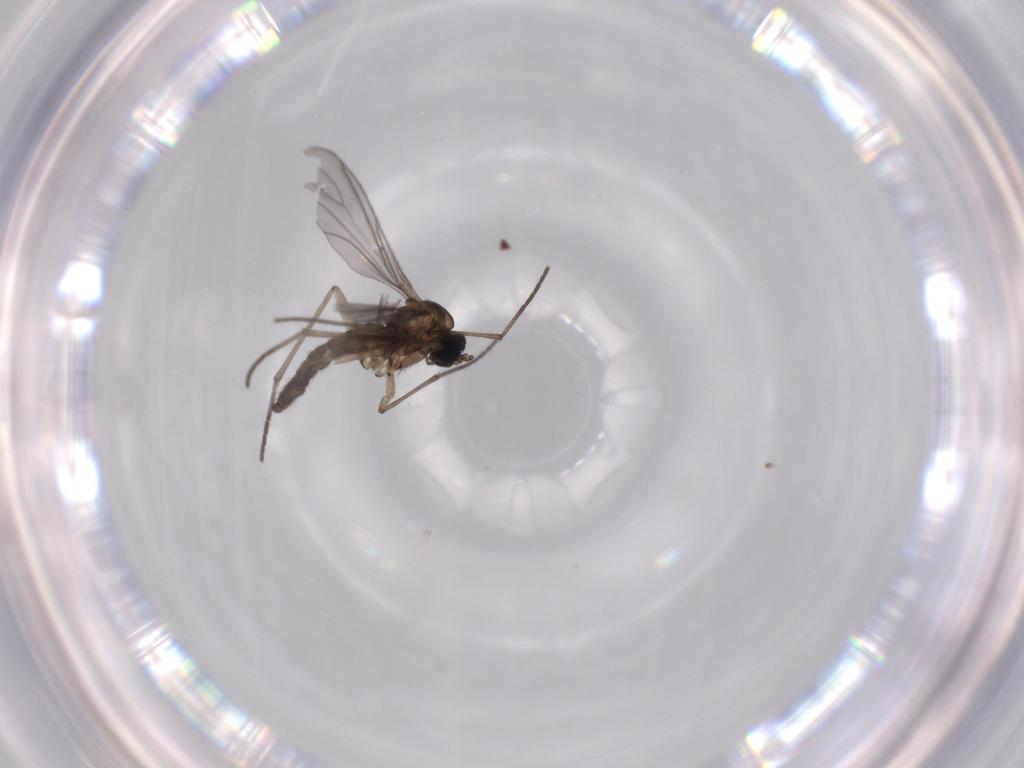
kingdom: Animalia
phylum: Arthropoda
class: Insecta
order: Diptera
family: Sciaridae
